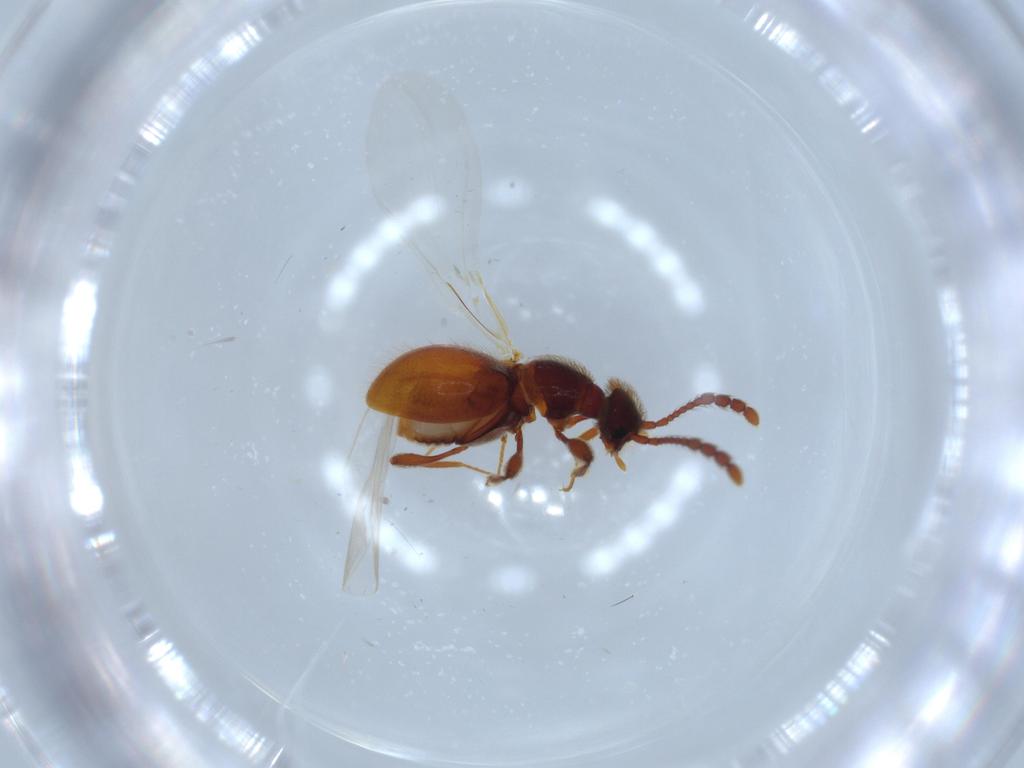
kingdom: Animalia
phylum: Arthropoda
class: Insecta
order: Coleoptera
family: Staphylinidae
